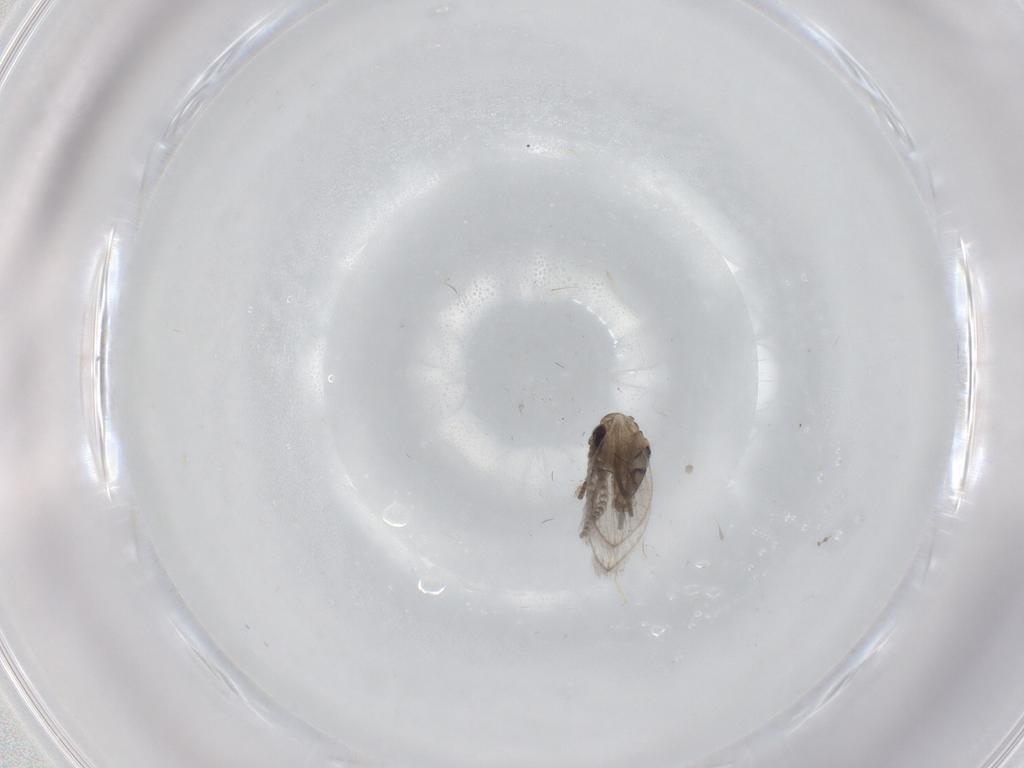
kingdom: Animalia
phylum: Arthropoda
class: Insecta
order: Diptera
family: Psychodidae
